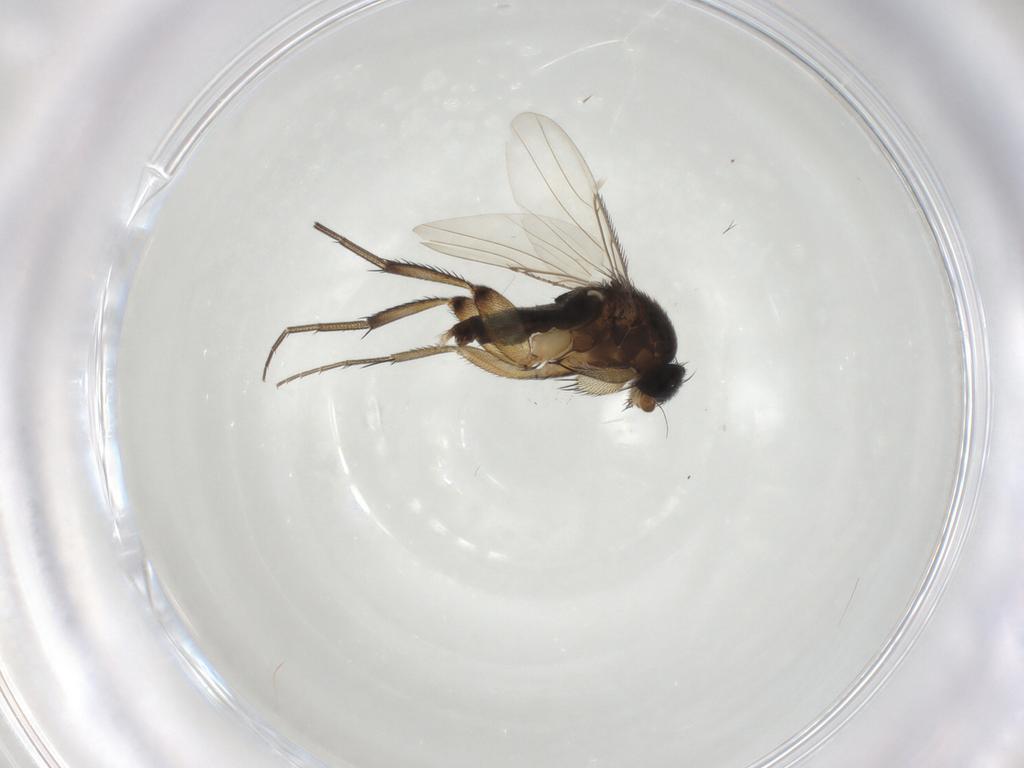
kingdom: Animalia
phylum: Arthropoda
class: Insecta
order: Diptera
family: Phoridae
